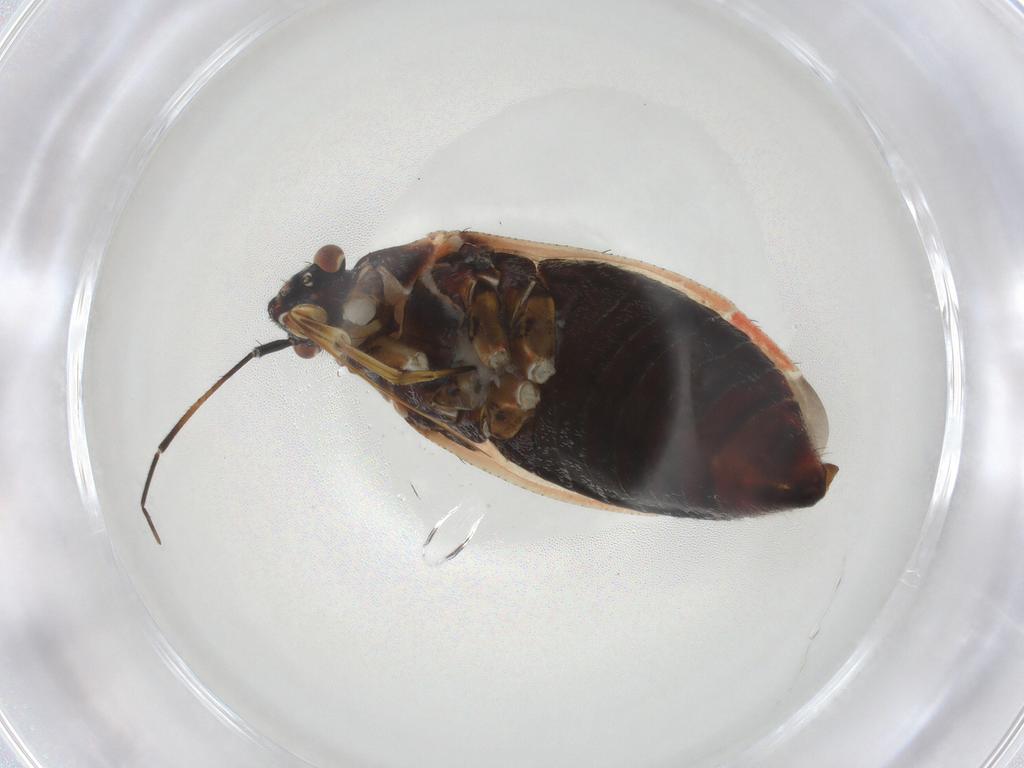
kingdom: Animalia
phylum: Arthropoda
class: Insecta
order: Hemiptera
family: Miridae
